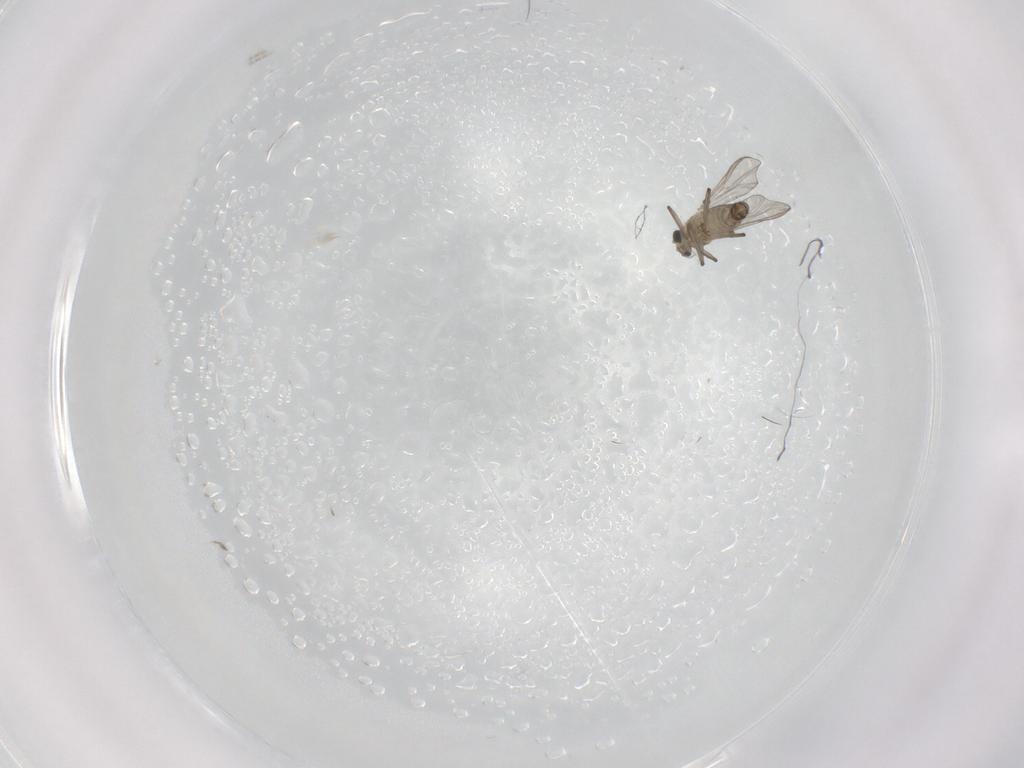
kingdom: Animalia
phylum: Arthropoda
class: Insecta
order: Diptera
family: Chironomidae
